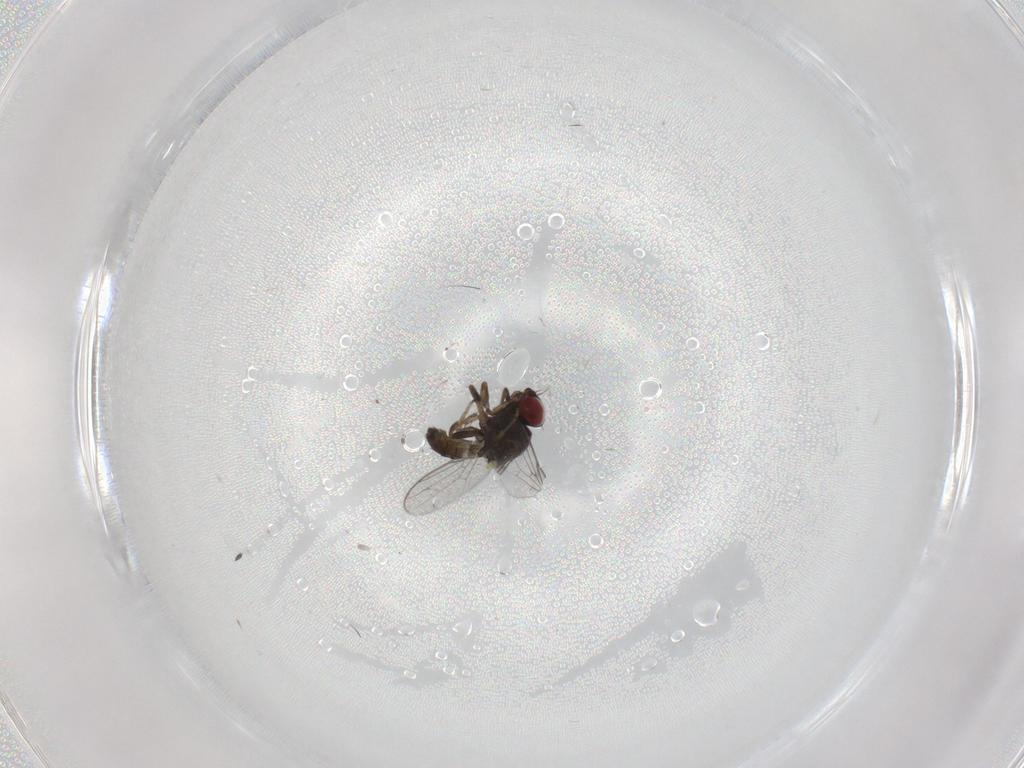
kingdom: Animalia
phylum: Arthropoda
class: Insecta
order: Diptera
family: Chloropidae
